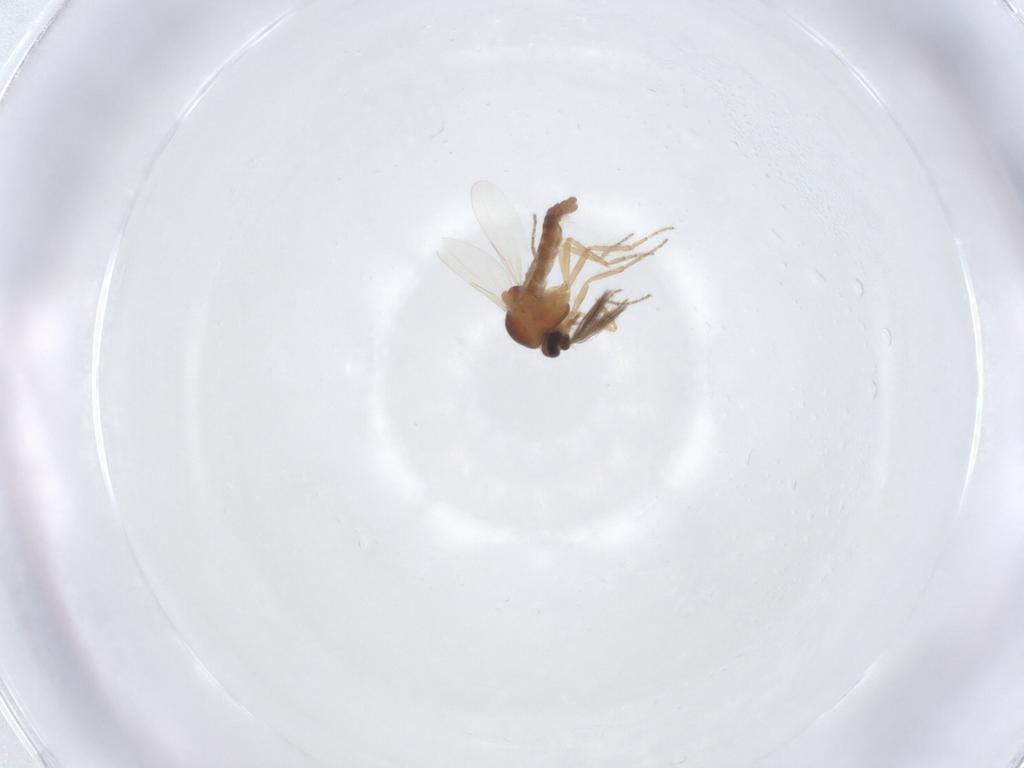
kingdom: Animalia
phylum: Arthropoda
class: Insecta
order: Diptera
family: Ceratopogonidae
